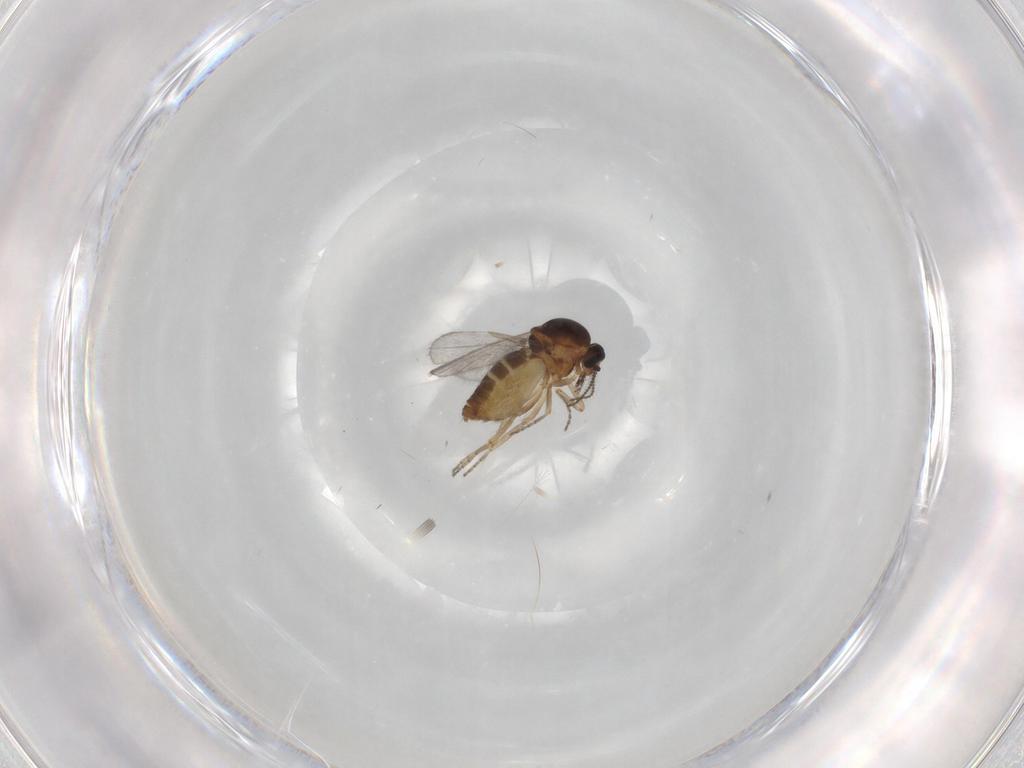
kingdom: Animalia
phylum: Arthropoda
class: Insecta
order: Diptera
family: Ceratopogonidae
